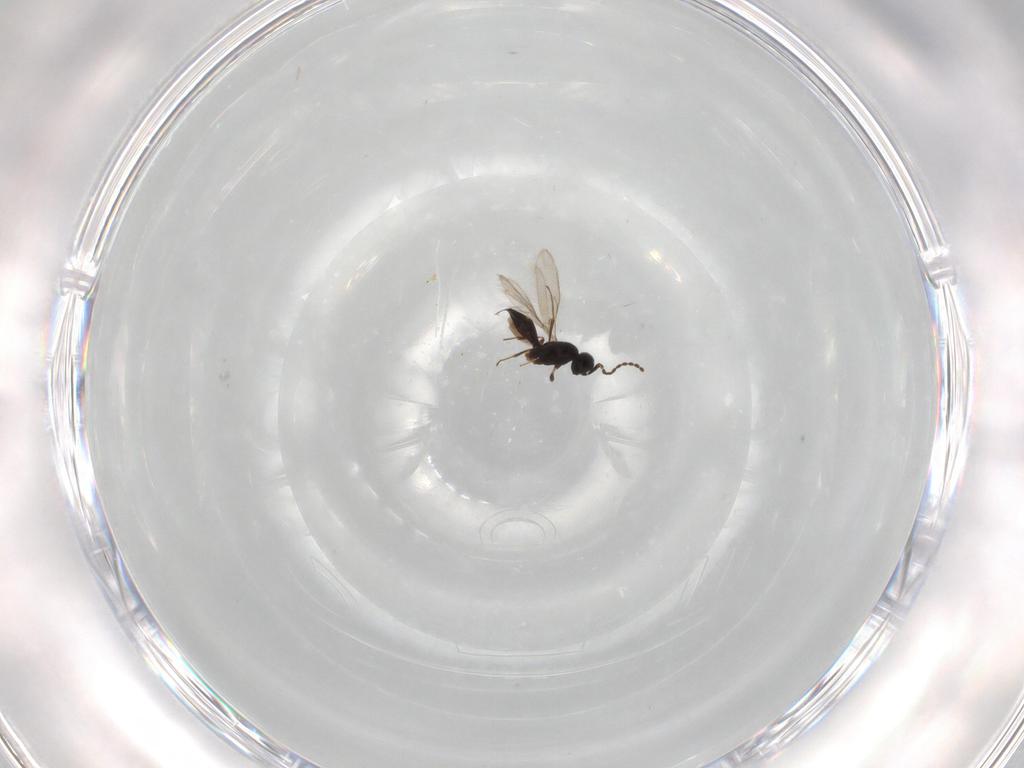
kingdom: Animalia
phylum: Arthropoda
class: Insecta
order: Hymenoptera
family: Scelionidae
